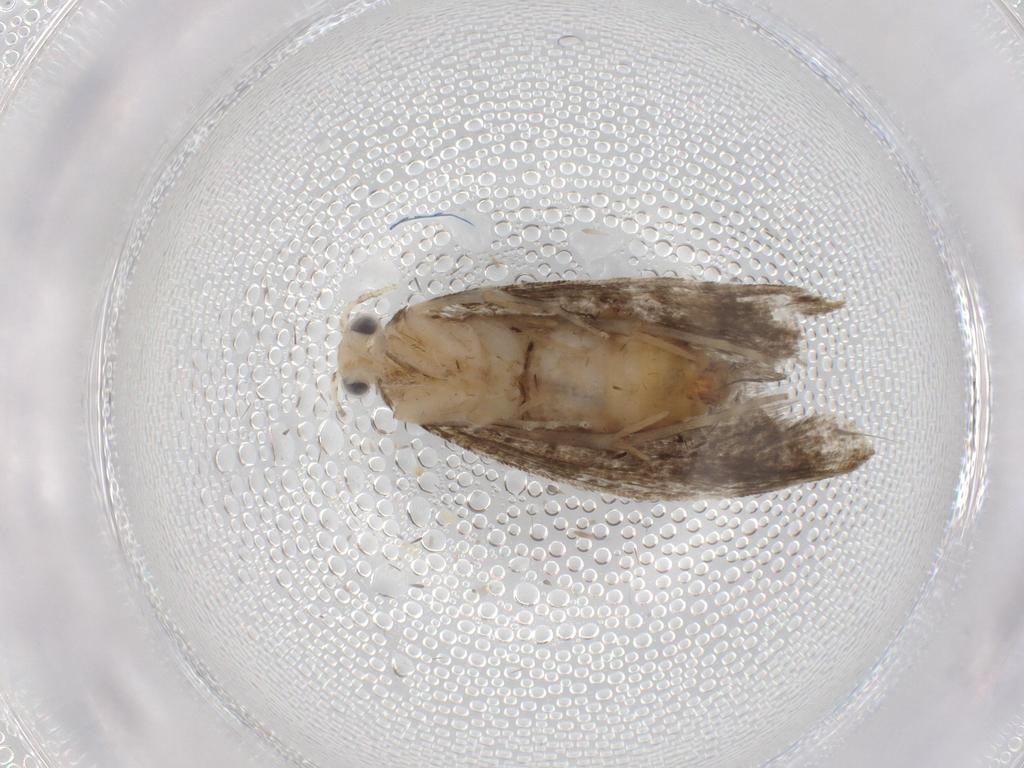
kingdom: Animalia
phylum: Arthropoda
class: Insecta
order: Lepidoptera
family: Tineidae
